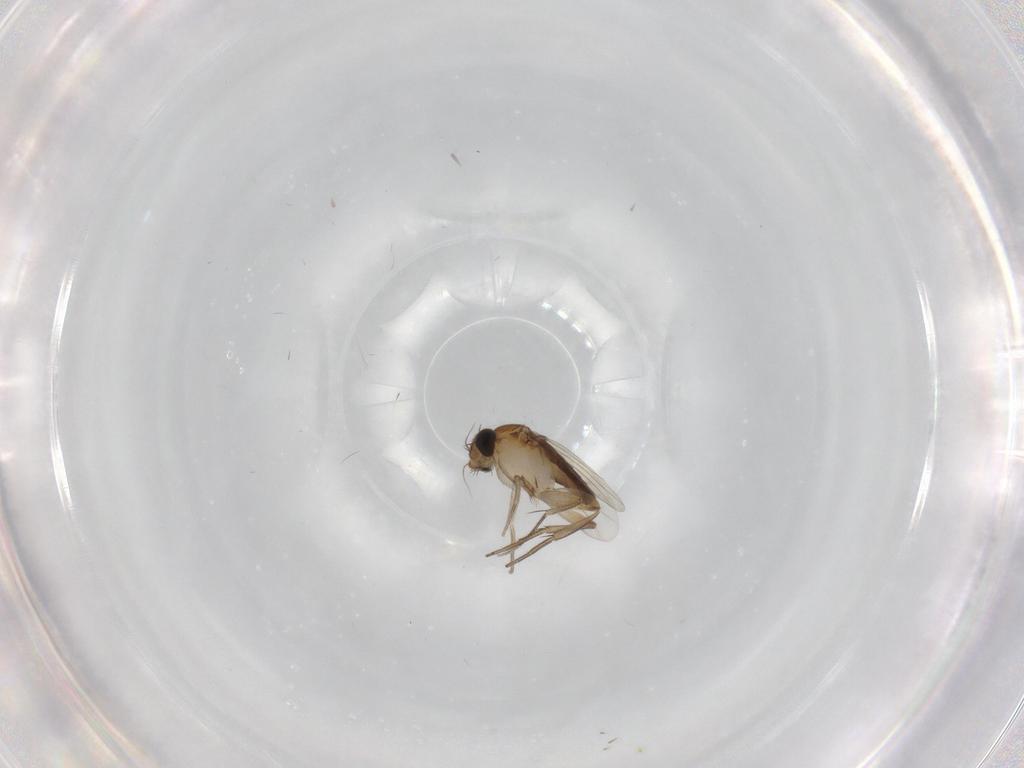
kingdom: Animalia
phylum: Arthropoda
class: Insecta
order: Diptera
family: Phoridae
